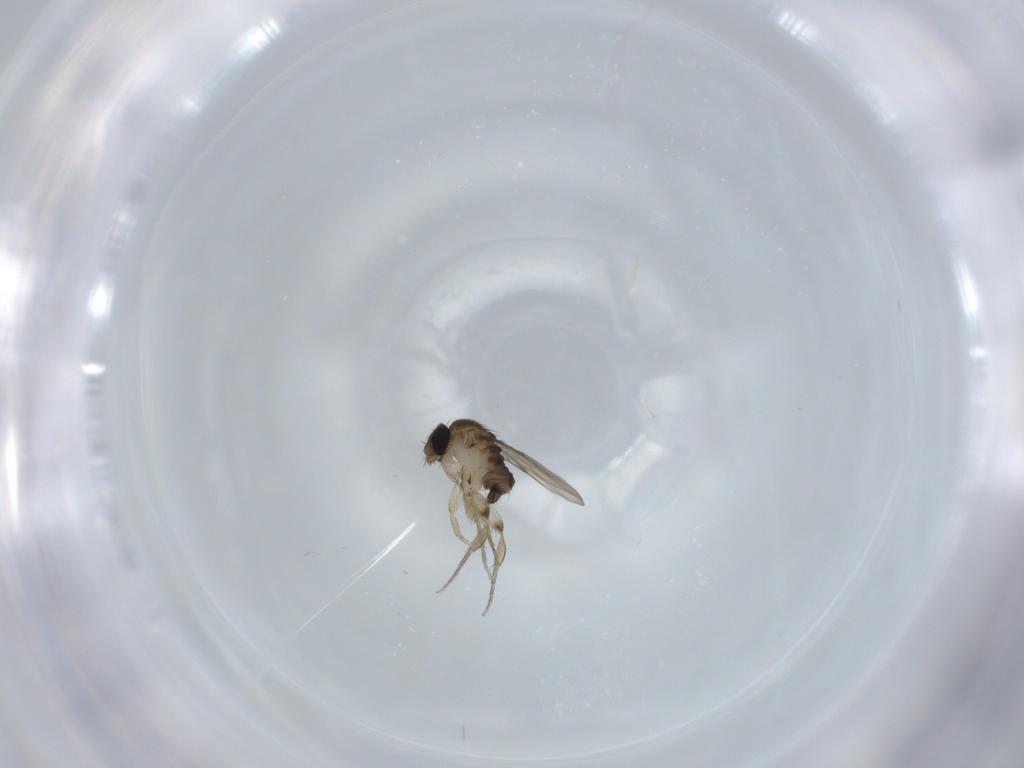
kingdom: Animalia
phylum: Arthropoda
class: Insecta
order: Diptera
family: Phoridae
